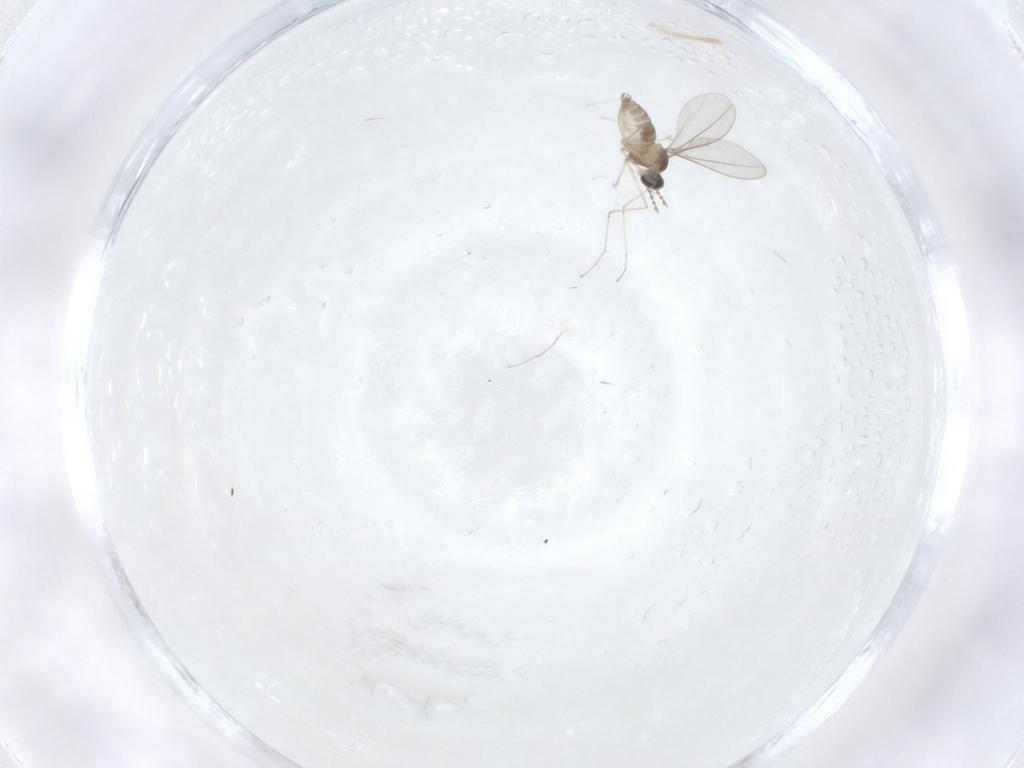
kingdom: Animalia
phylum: Arthropoda
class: Insecta
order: Diptera
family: Cecidomyiidae
